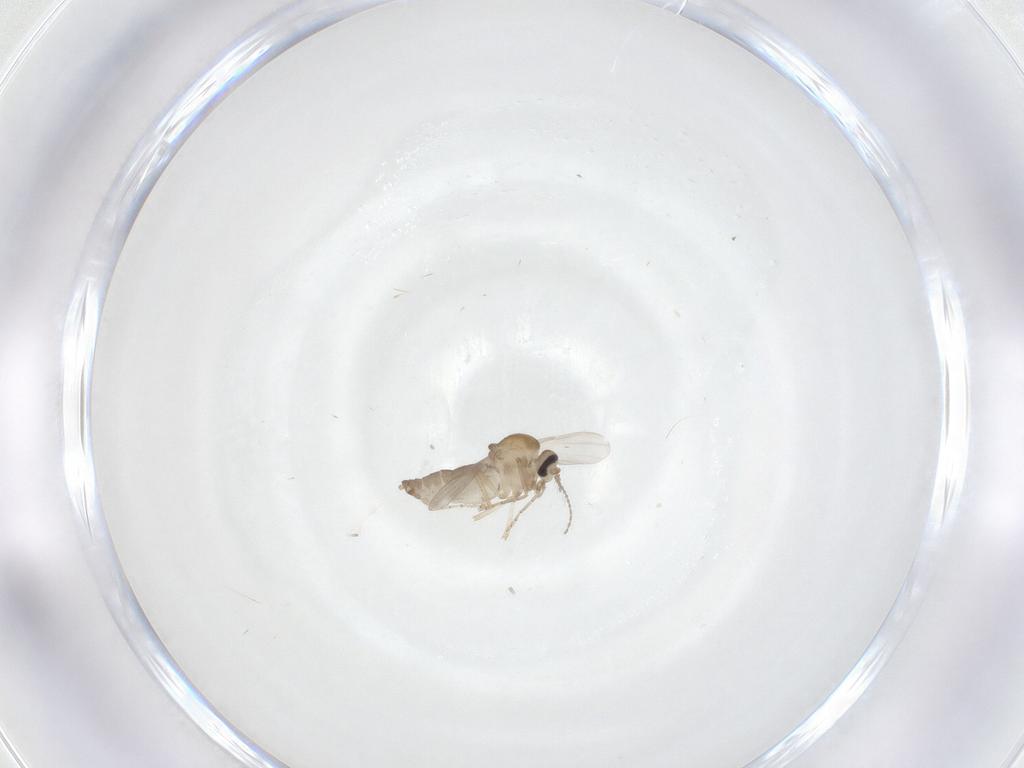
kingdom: Animalia
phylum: Arthropoda
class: Insecta
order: Diptera
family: Ceratopogonidae
